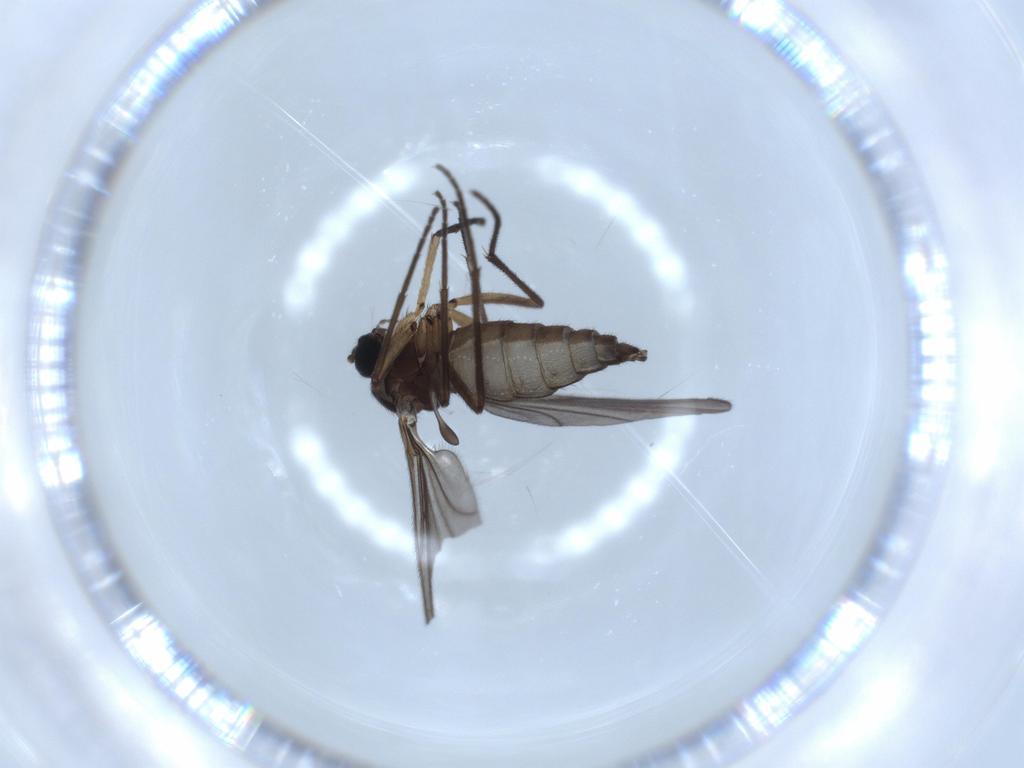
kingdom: Animalia
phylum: Arthropoda
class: Insecta
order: Diptera
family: Sciaridae
